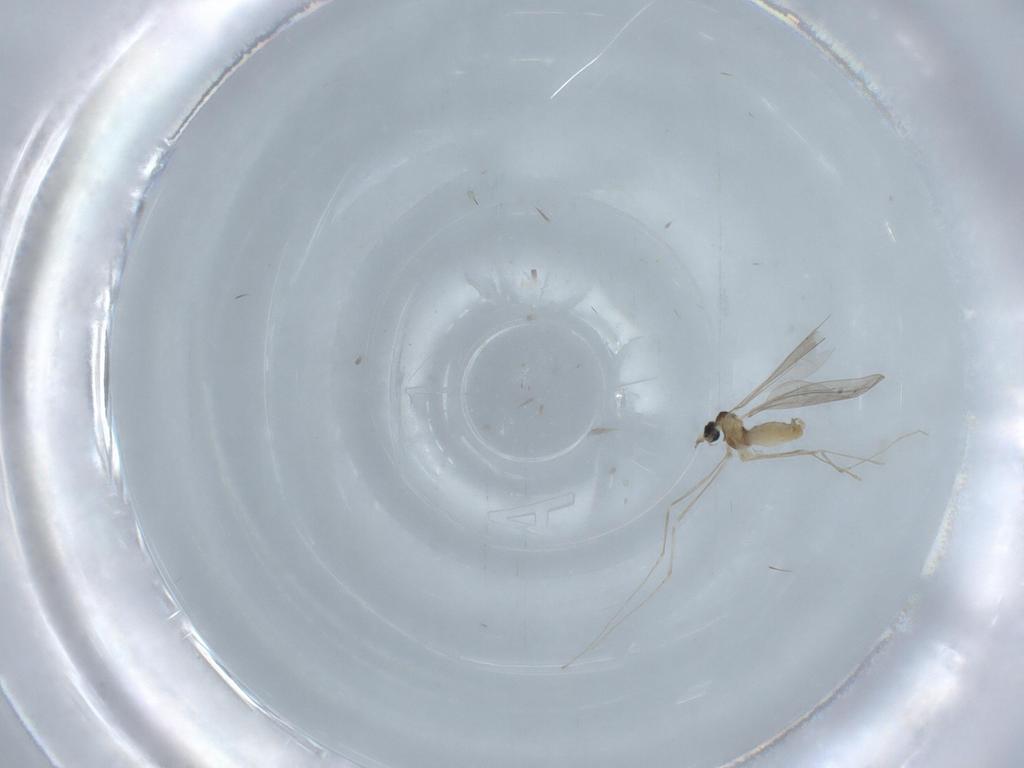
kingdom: Animalia
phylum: Arthropoda
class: Insecta
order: Diptera
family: Cecidomyiidae
